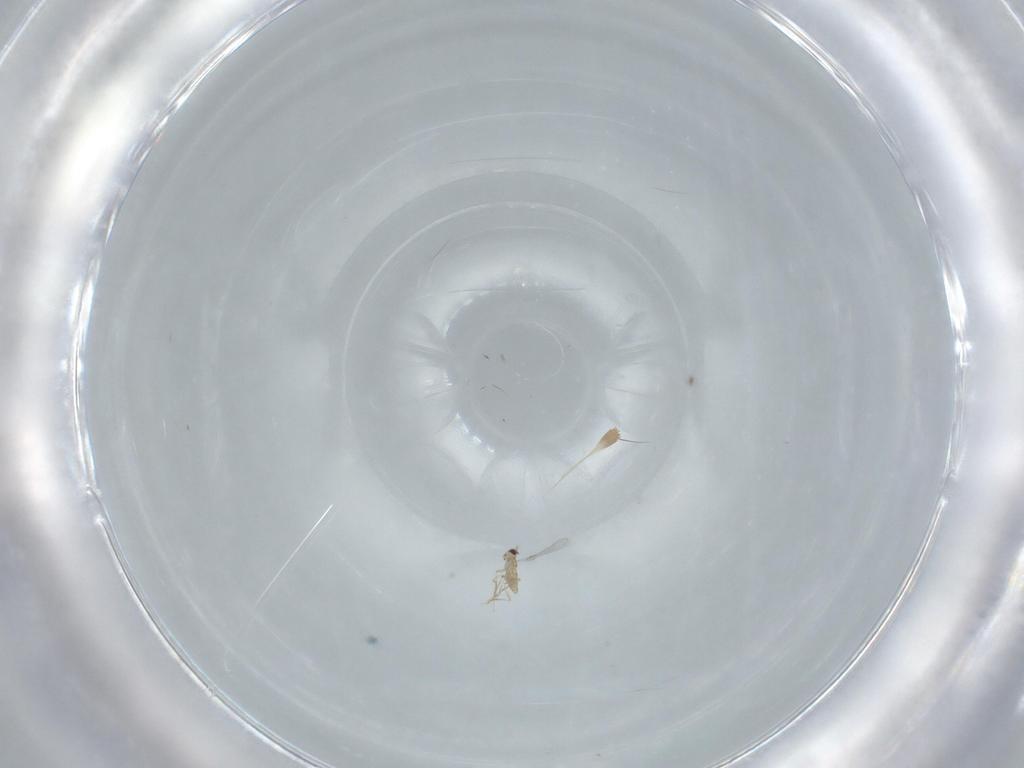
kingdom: Animalia
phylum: Arthropoda
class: Insecta
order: Hymenoptera
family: Mymaridae
